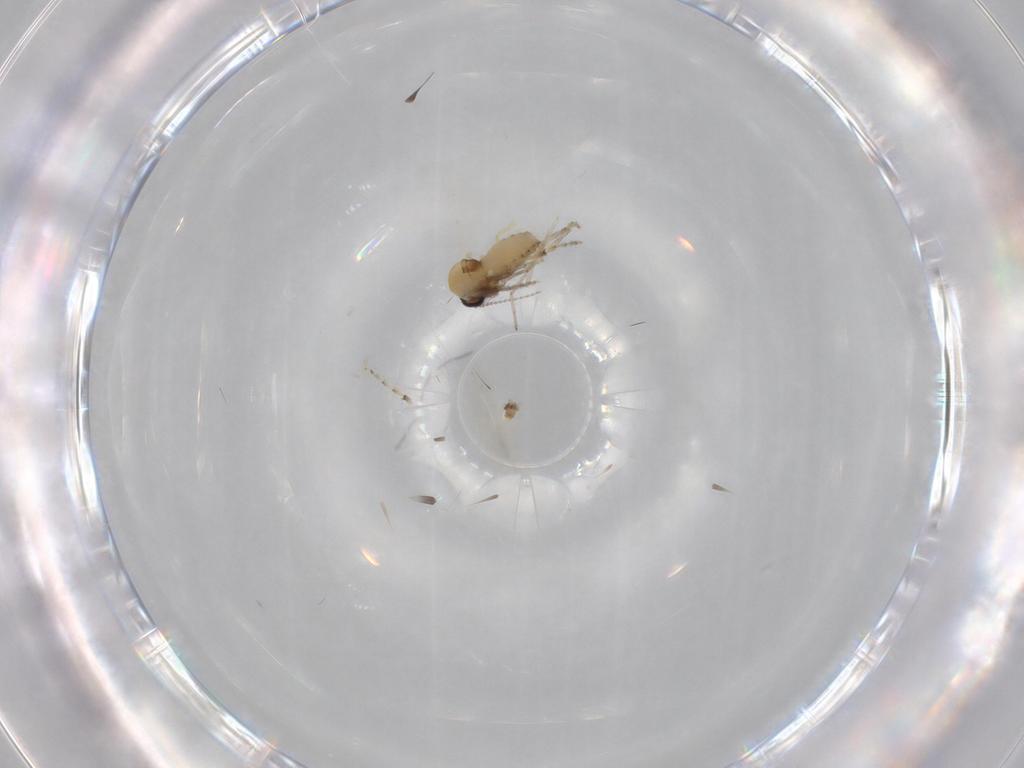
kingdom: Animalia
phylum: Arthropoda
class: Insecta
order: Diptera
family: Ceratopogonidae
